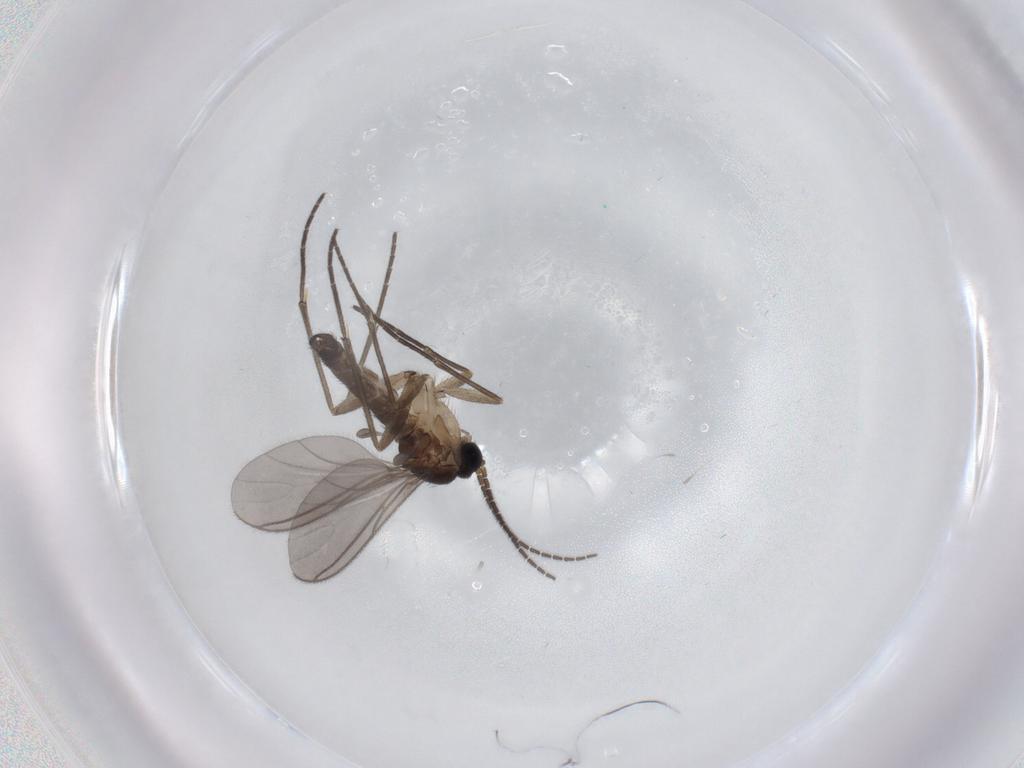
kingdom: Animalia
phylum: Arthropoda
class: Insecta
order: Diptera
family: Sciaridae
